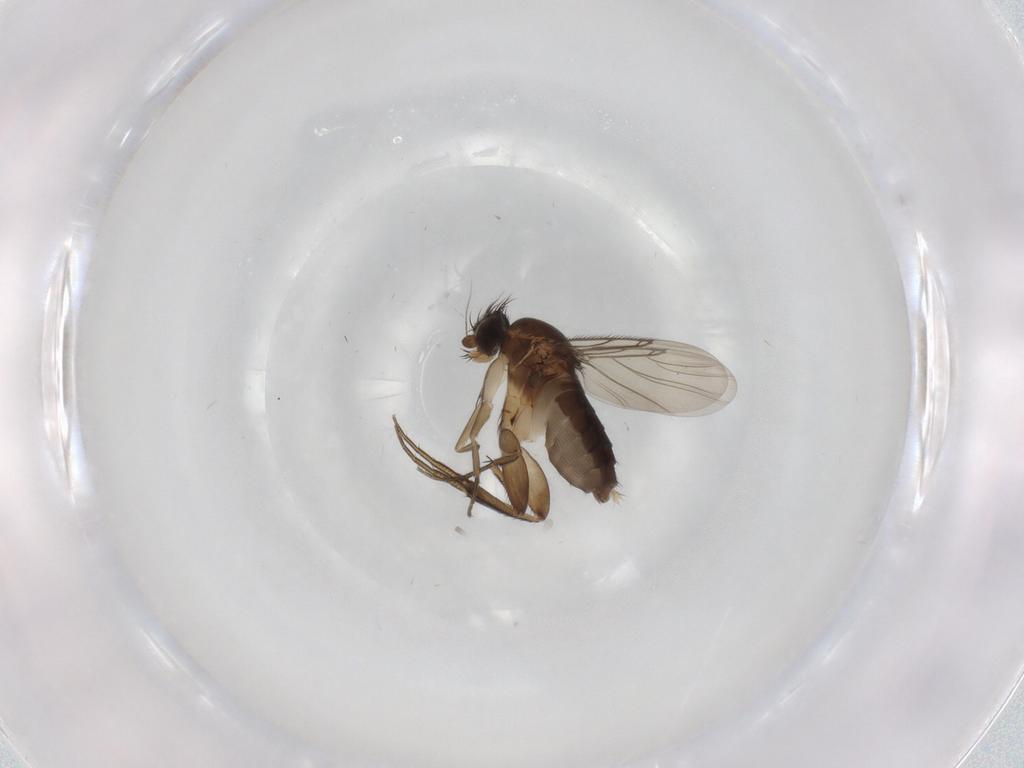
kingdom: Animalia
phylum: Arthropoda
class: Insecta
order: Diptera
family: Phoridae
